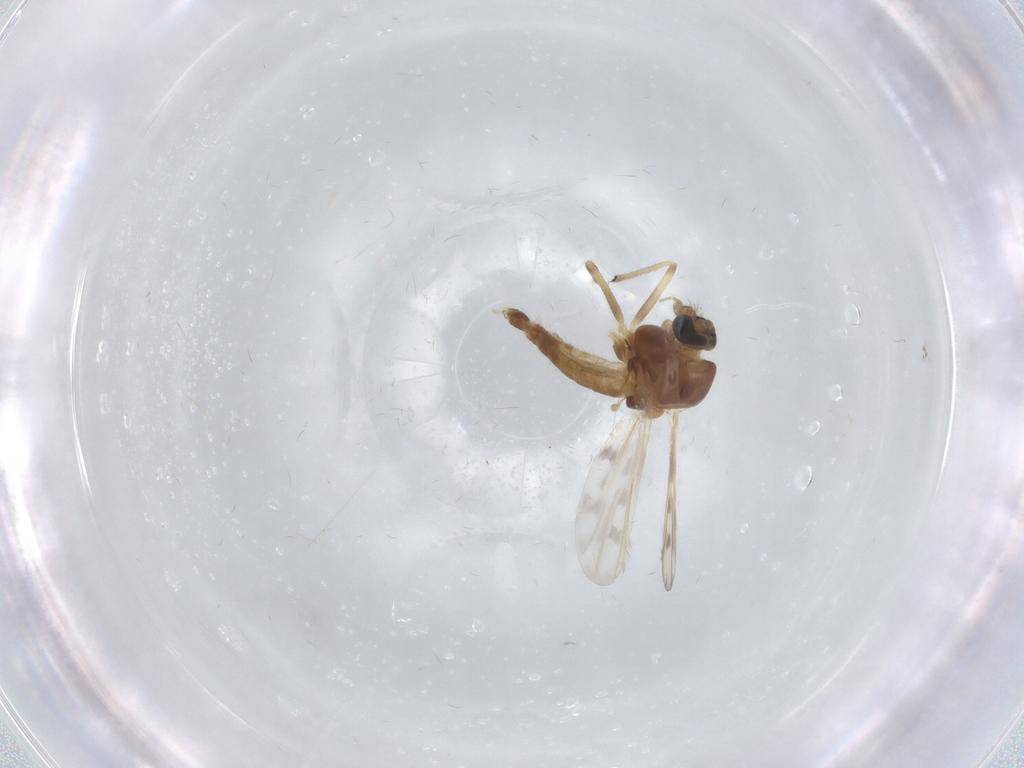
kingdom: Animalia
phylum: Arthropoda
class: Insecta
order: Diptera
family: Chironomidae
